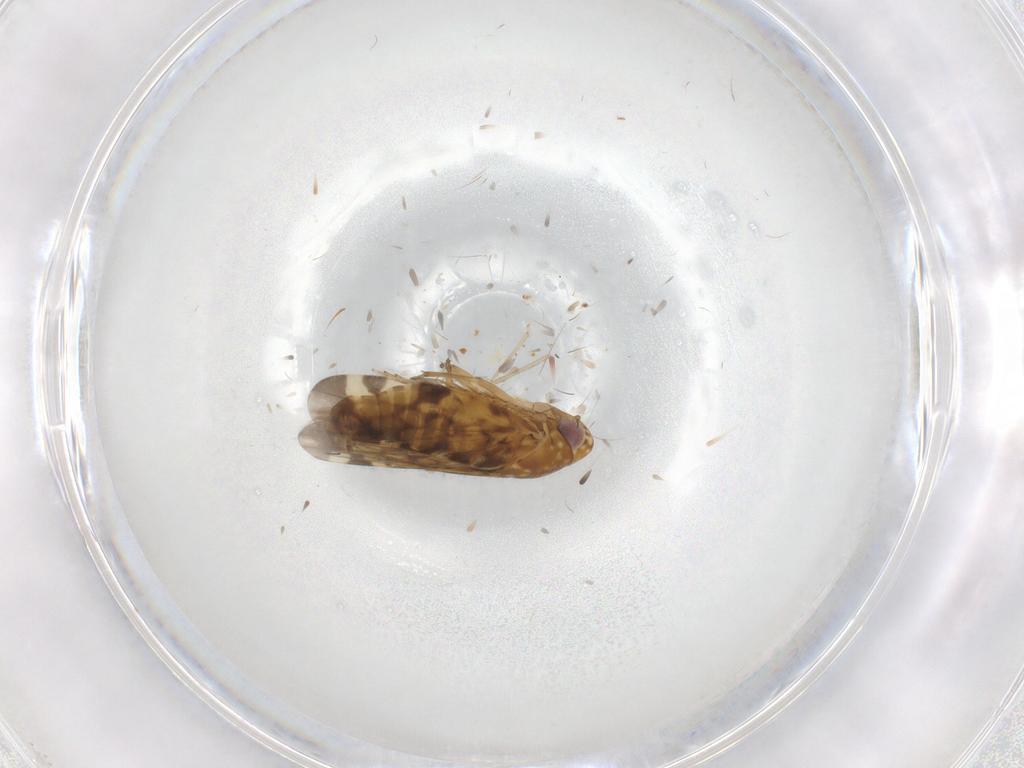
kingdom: Animalia
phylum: Arthropoda
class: Insecta
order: Hemiptera
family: Cicadellidae
